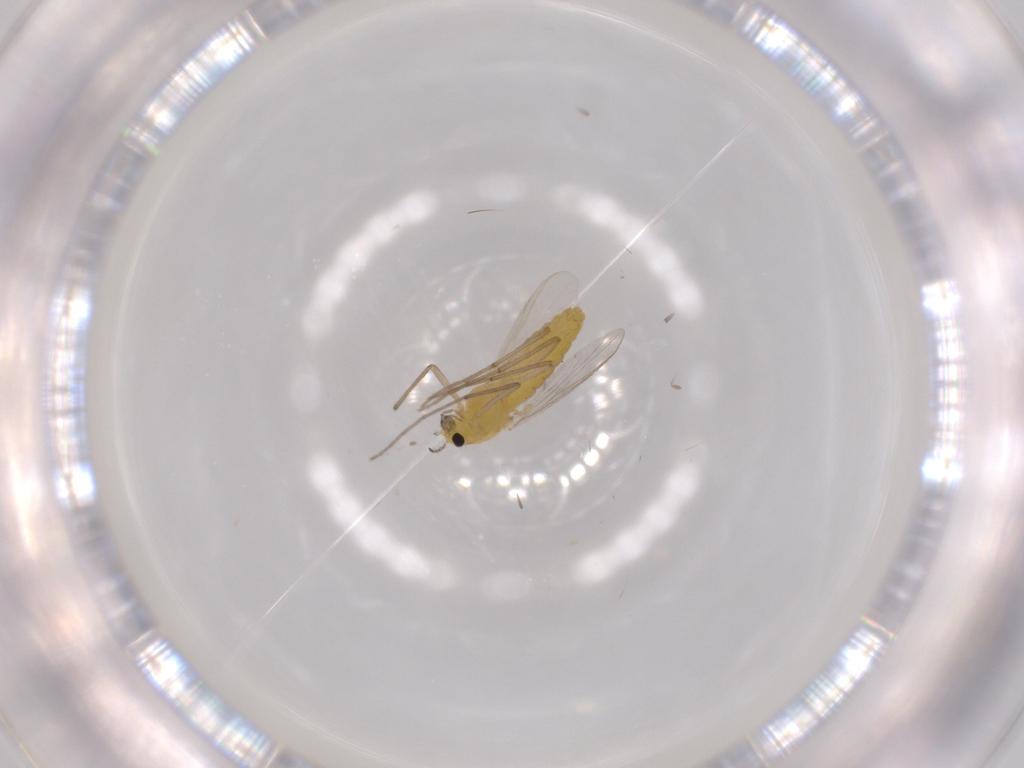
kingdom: Animalia
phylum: Arthropoda
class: Insecta
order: Diptera
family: Chironomidae
